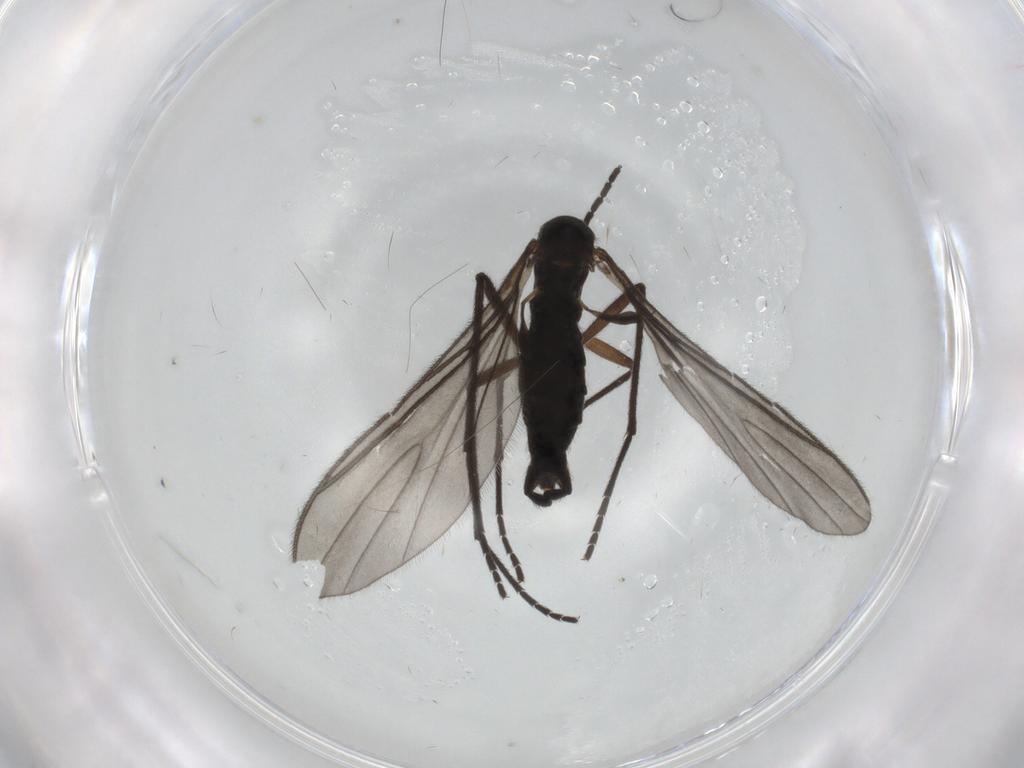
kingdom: Animalia
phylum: Arthropoda
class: Insecta
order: Diptera
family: Sciaridae
